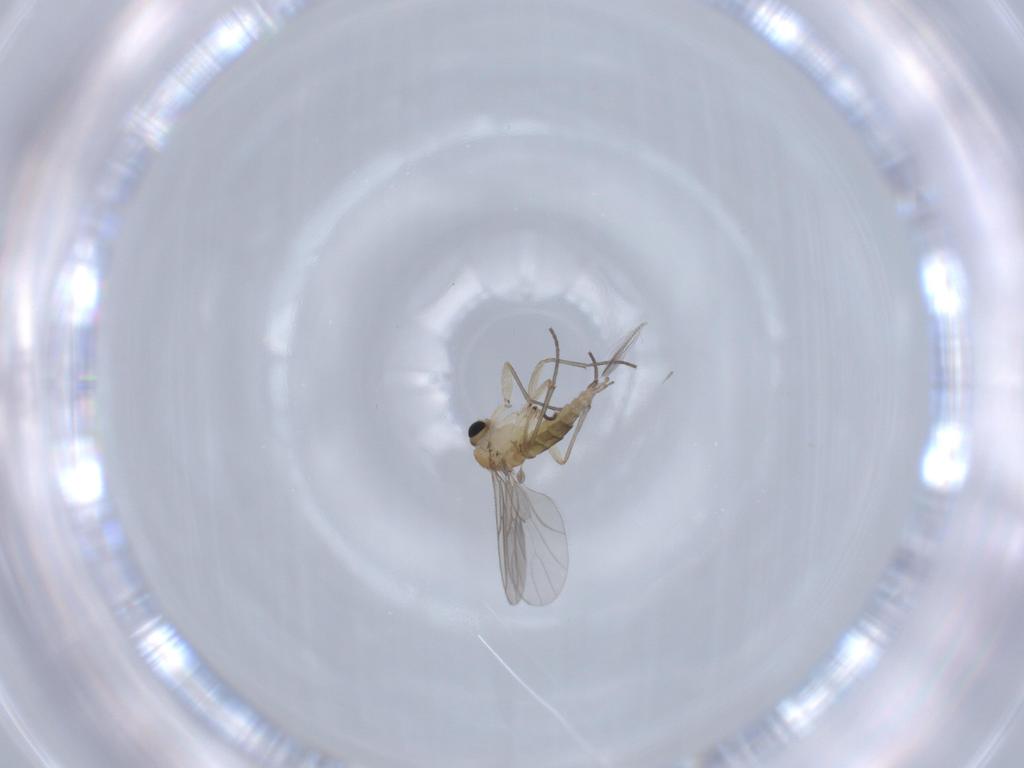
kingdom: Animalia
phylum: Arthropoda
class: Insecta
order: Diptera
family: Sciaridae
